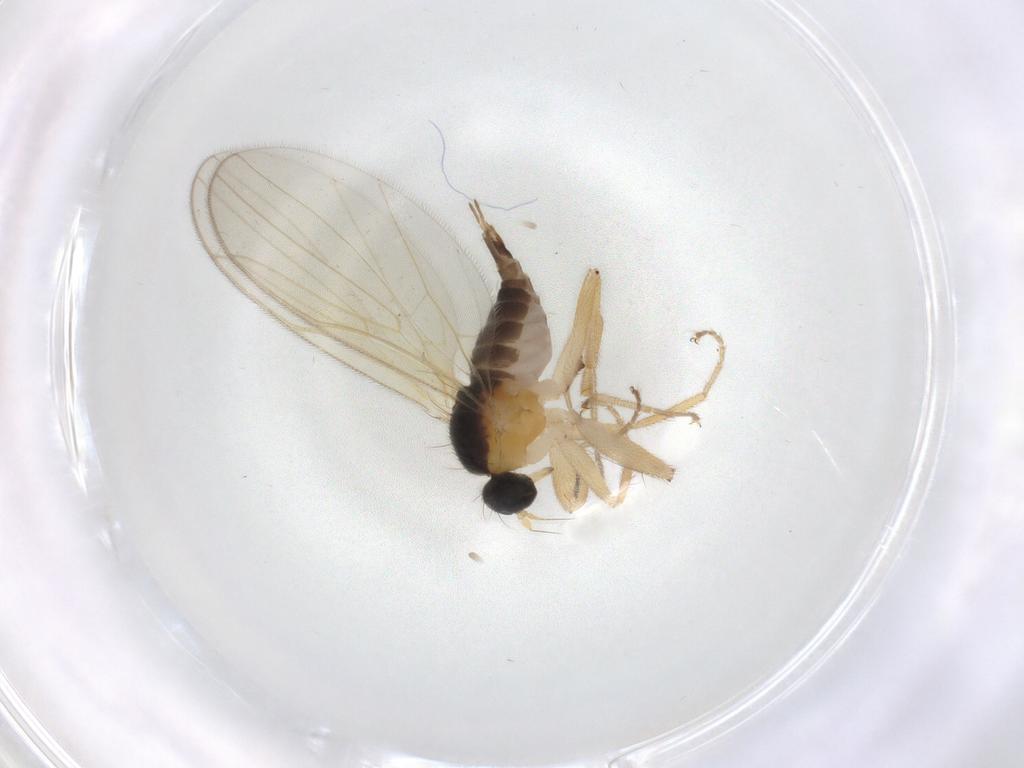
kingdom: Animalia
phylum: Arthropoda
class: Insecta
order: Diptera
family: Hybotidae
